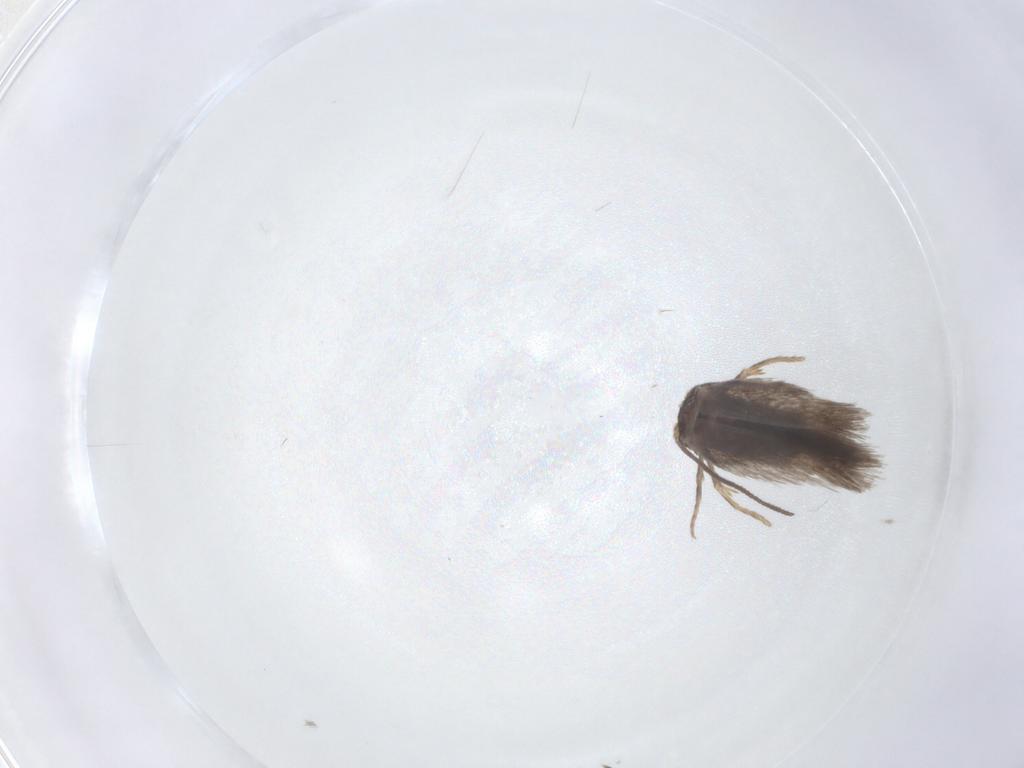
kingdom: Animalia
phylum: Arthropoda
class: Insecta
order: Lepidoptera
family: Nepticulidae
